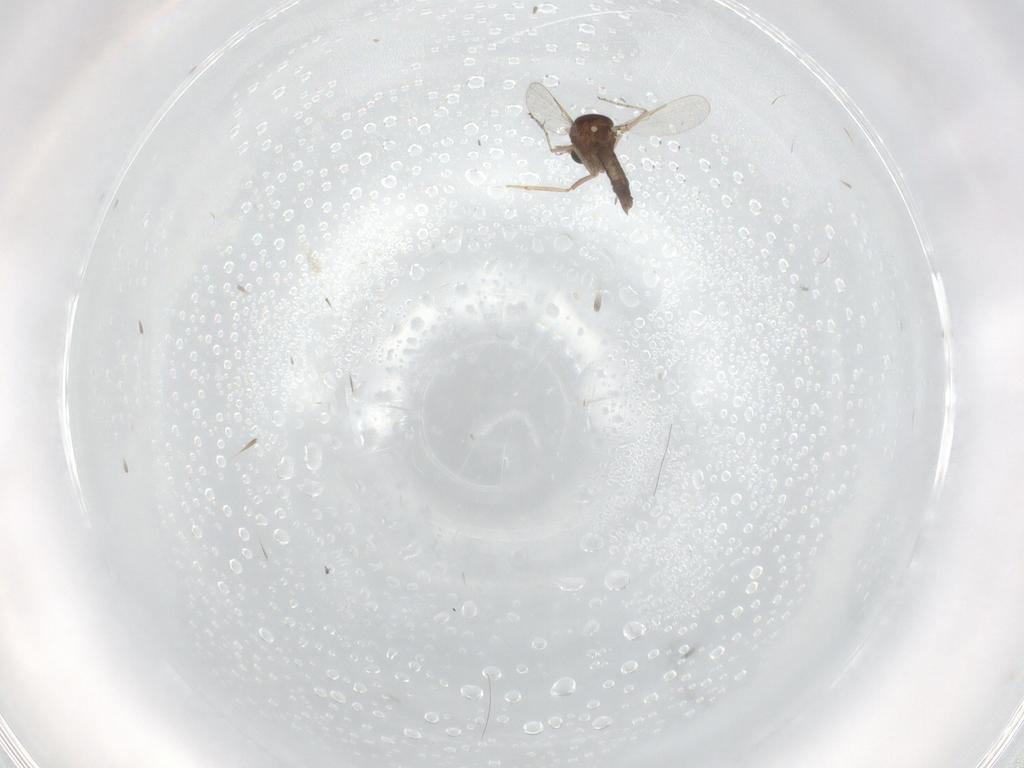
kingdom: Animalia
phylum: Arthropoda
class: Insecta
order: Diptera
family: Ceratopogonidae
